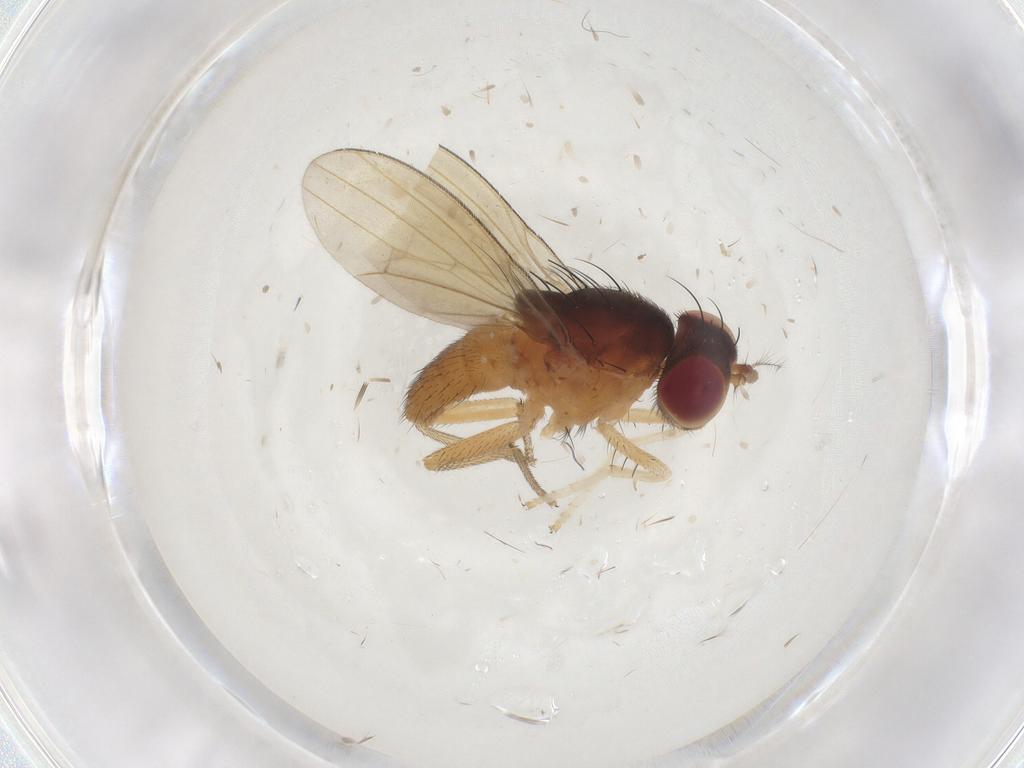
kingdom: Animalia
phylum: Arthropoda
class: Insecta
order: Diptera
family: Lauxaniidae
